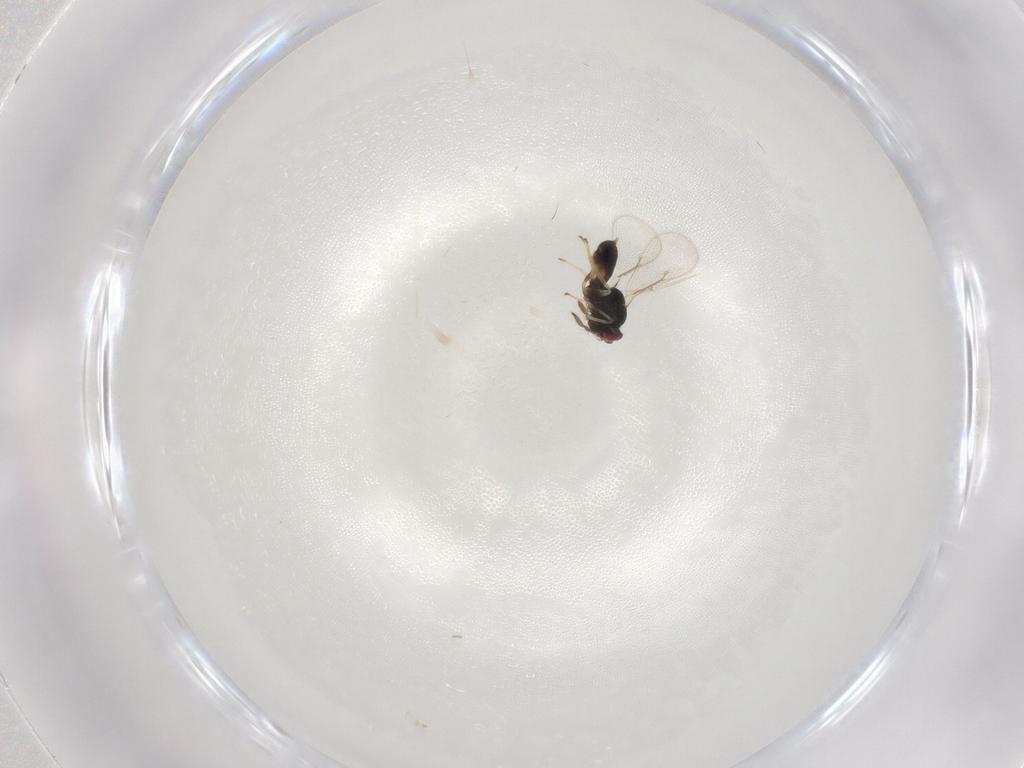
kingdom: Animalia
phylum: Arthropoda
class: Insecta
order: Hymenoptera
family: Eulophidae
